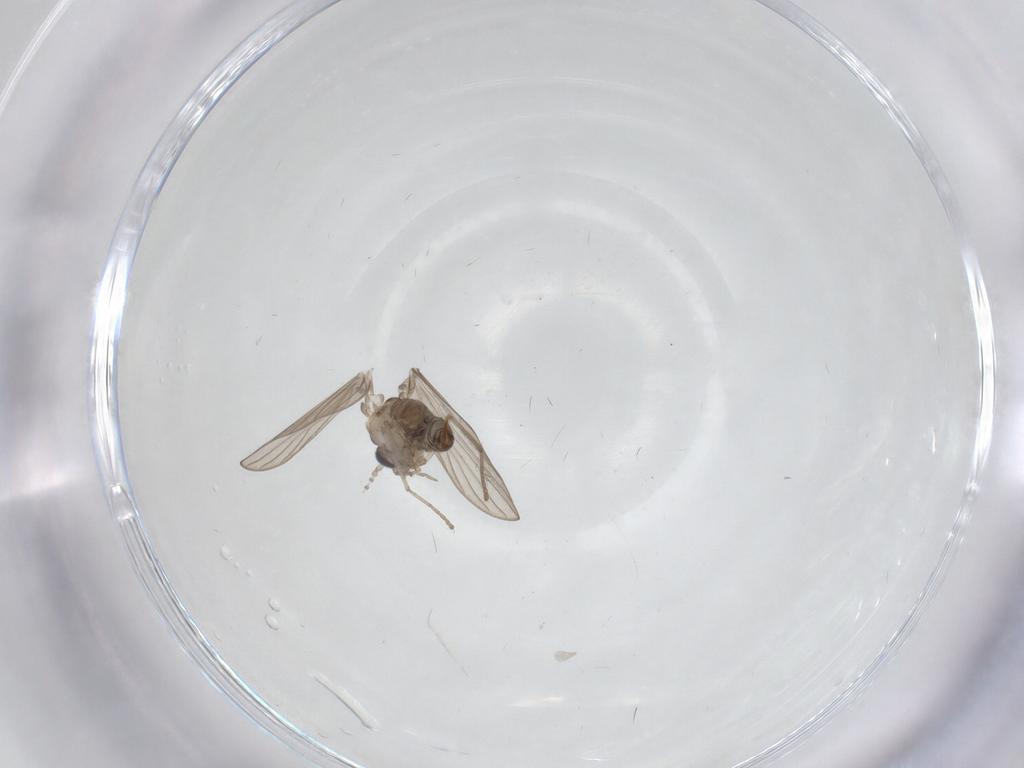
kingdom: Animalia
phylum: Arthropoda
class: Insecta
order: Diptera
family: Psychodidae
